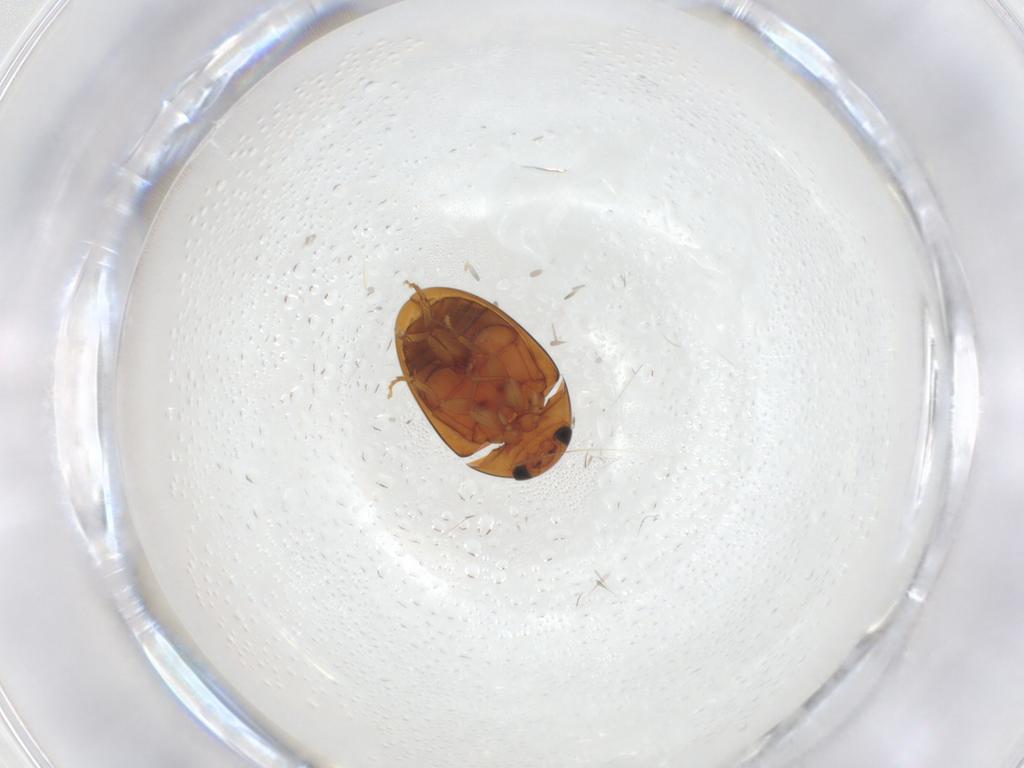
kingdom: Animalia
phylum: Arthropoda
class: Insecta
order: Coleoptera
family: Phalacridae
